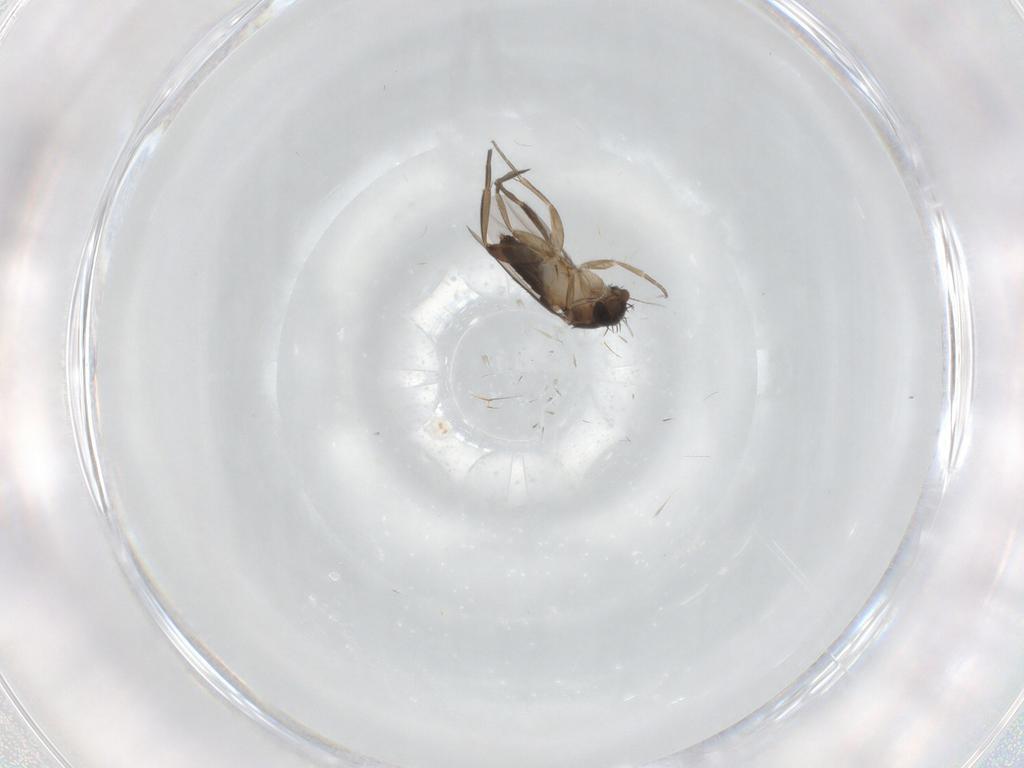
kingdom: Animalia
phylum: Arthropoda
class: Insecta
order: Diptera
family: Phoridae
